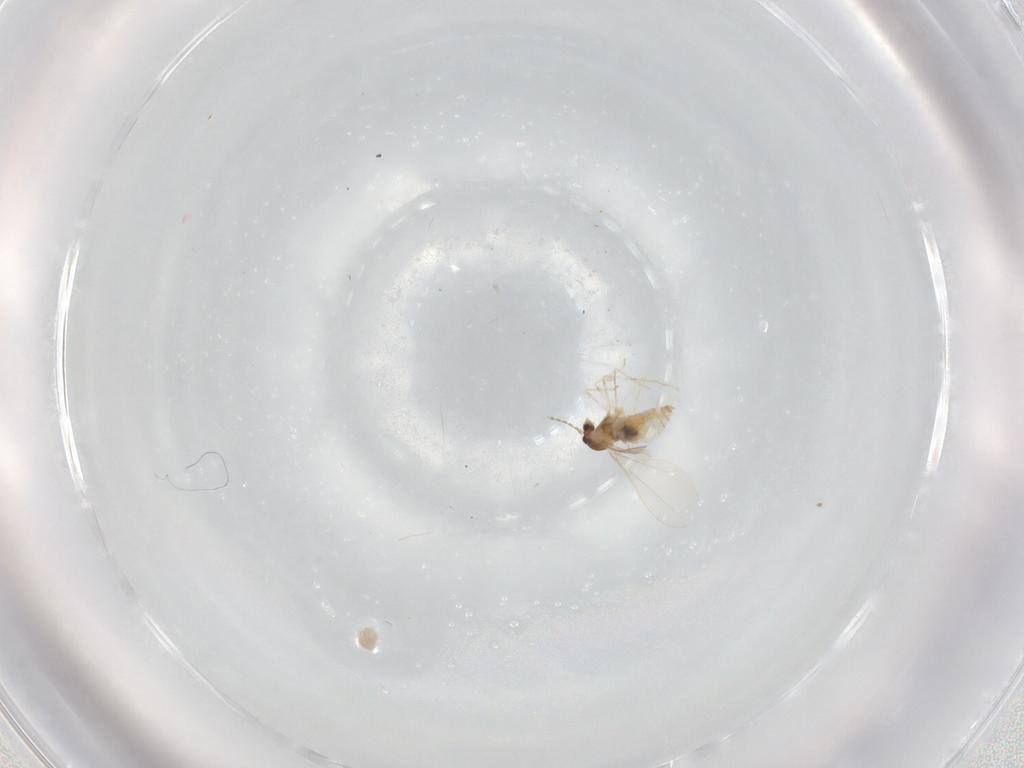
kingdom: Animalia
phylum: Arthropoda
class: Insecta
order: Diptera
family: Cecidomyiidae
